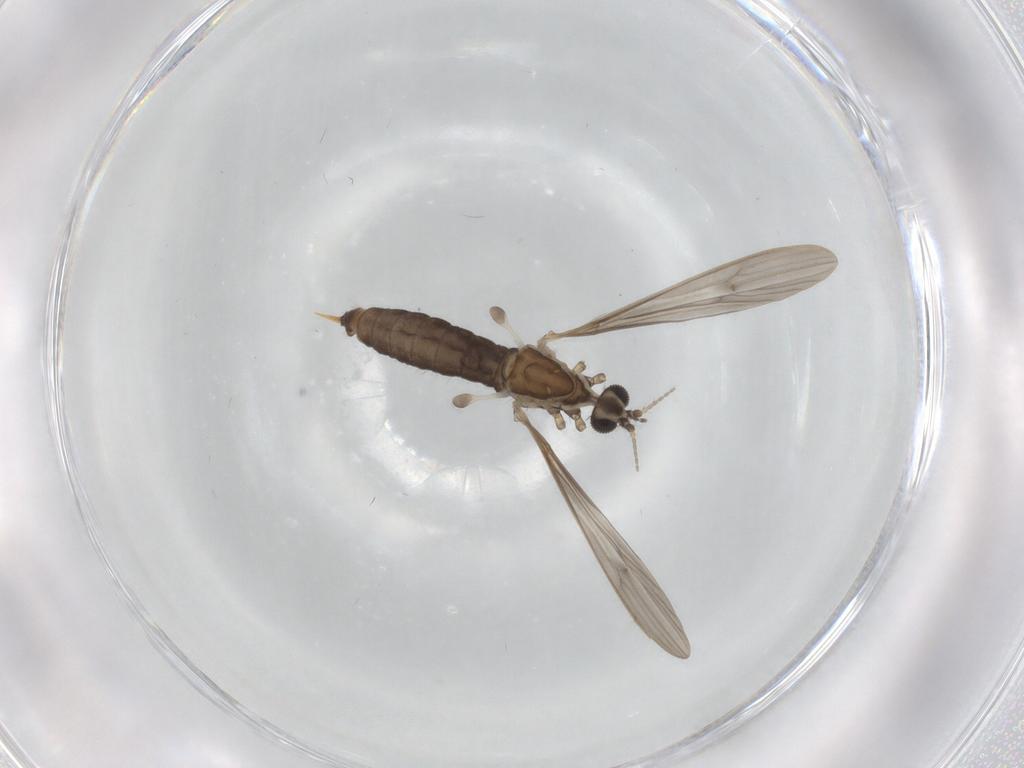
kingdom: Animalia
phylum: Arthropoda
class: Insecta
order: Diptera
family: Limoniidae
